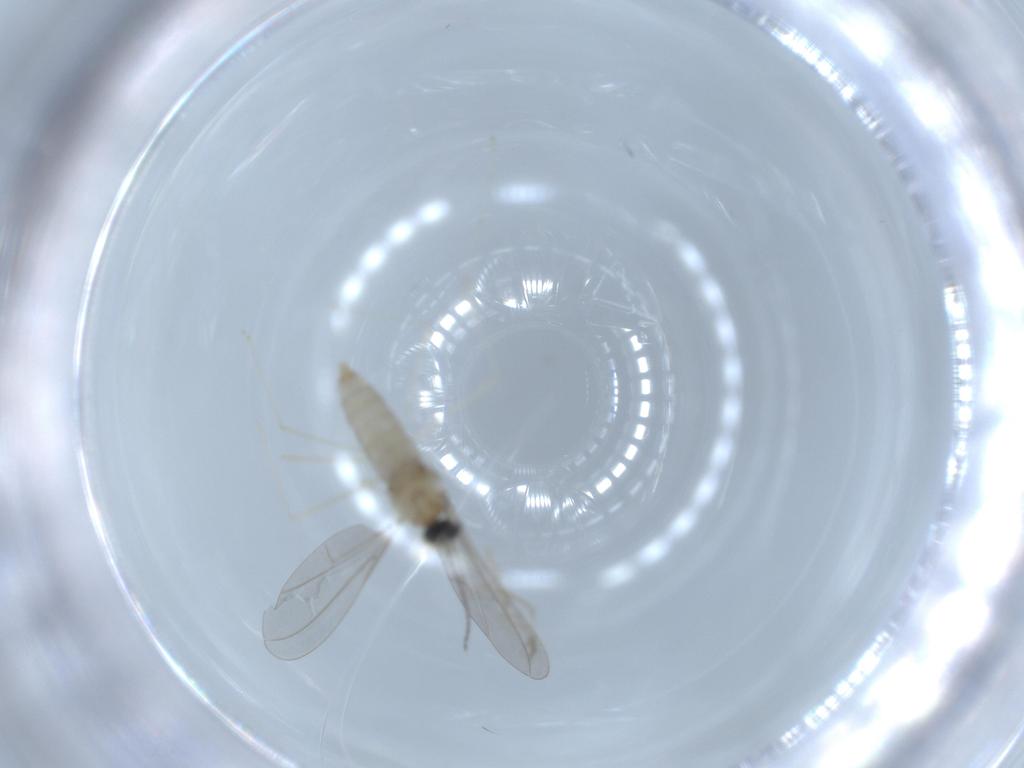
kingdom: Animalia
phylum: Arthropoda
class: Insecta
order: Diptera
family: Cecidomyiidae
